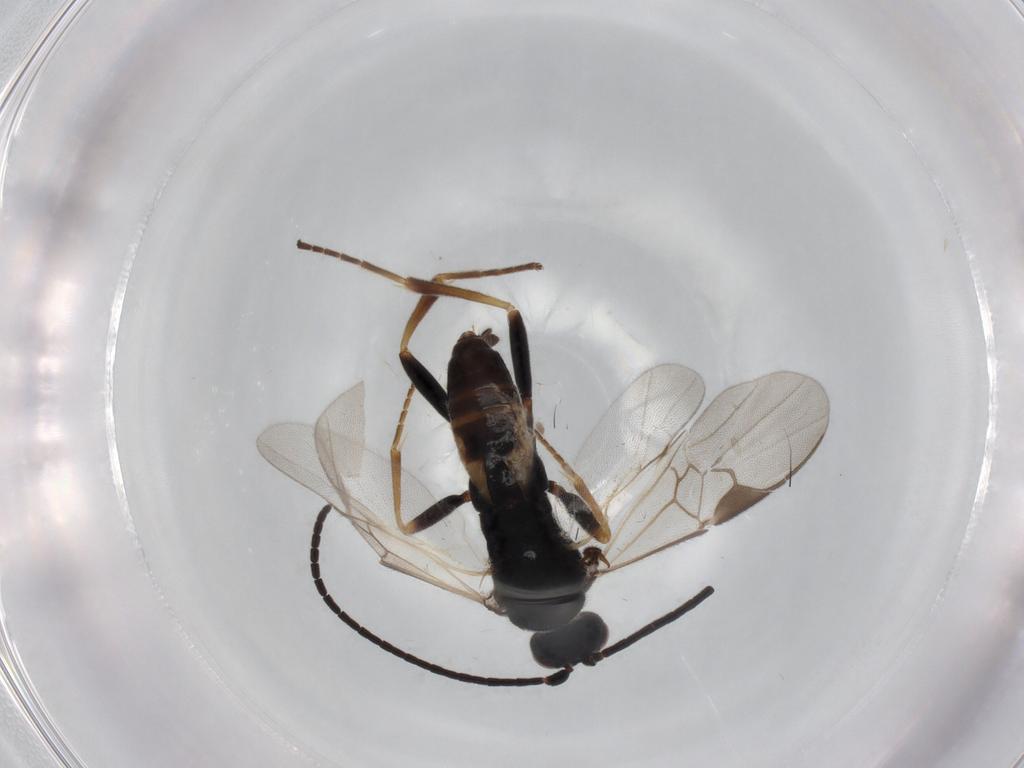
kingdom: Animalia
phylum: Arthropoda
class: Insecta
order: Hymenoptera
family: Braconidae
